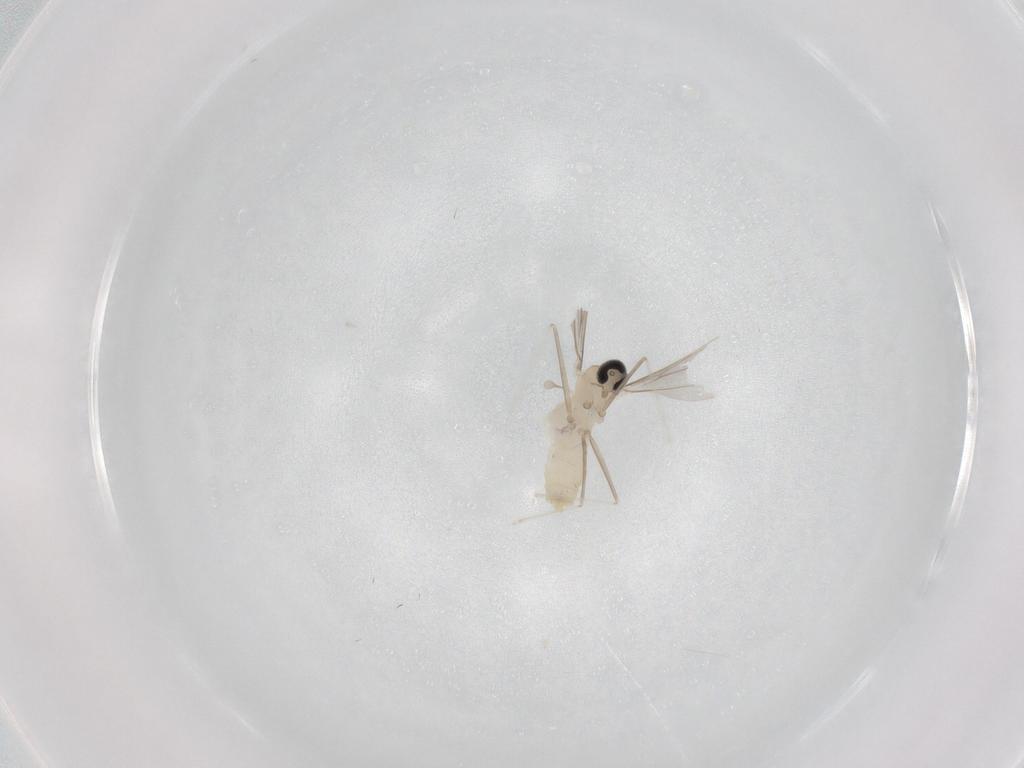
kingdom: Animalia
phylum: Arthropoda
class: Insecta
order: Diptera
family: Cecidomyiidae
